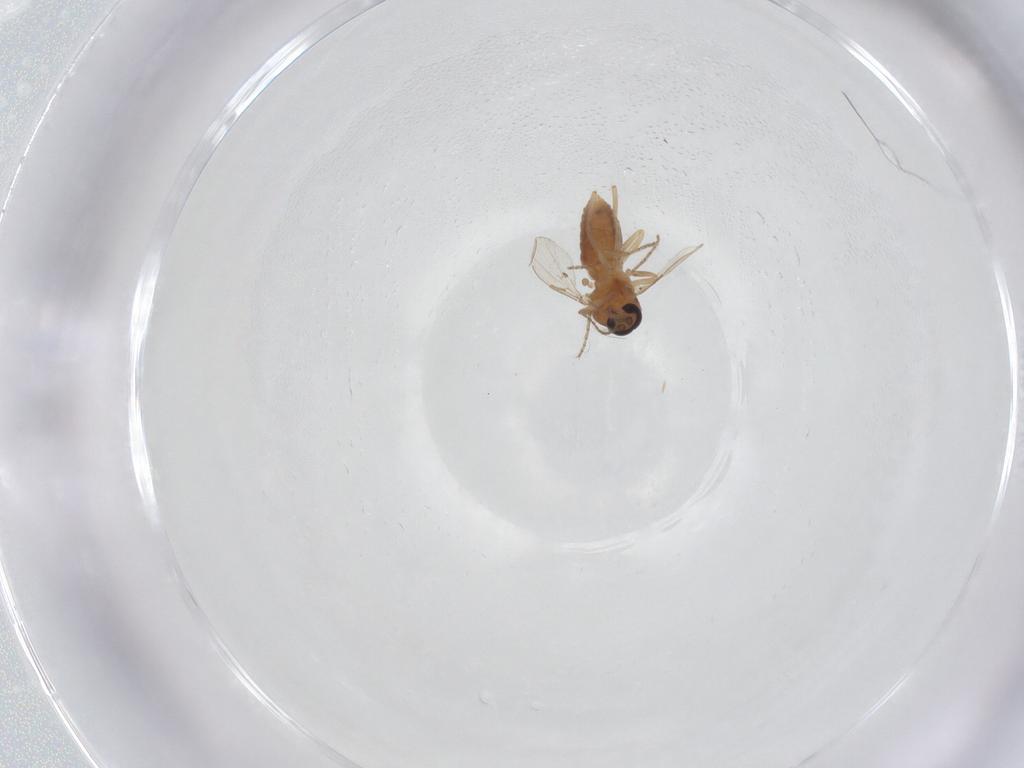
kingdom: Animalia
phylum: Arthropoda
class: Insecta
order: Diptera
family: Ceratopogonidae
